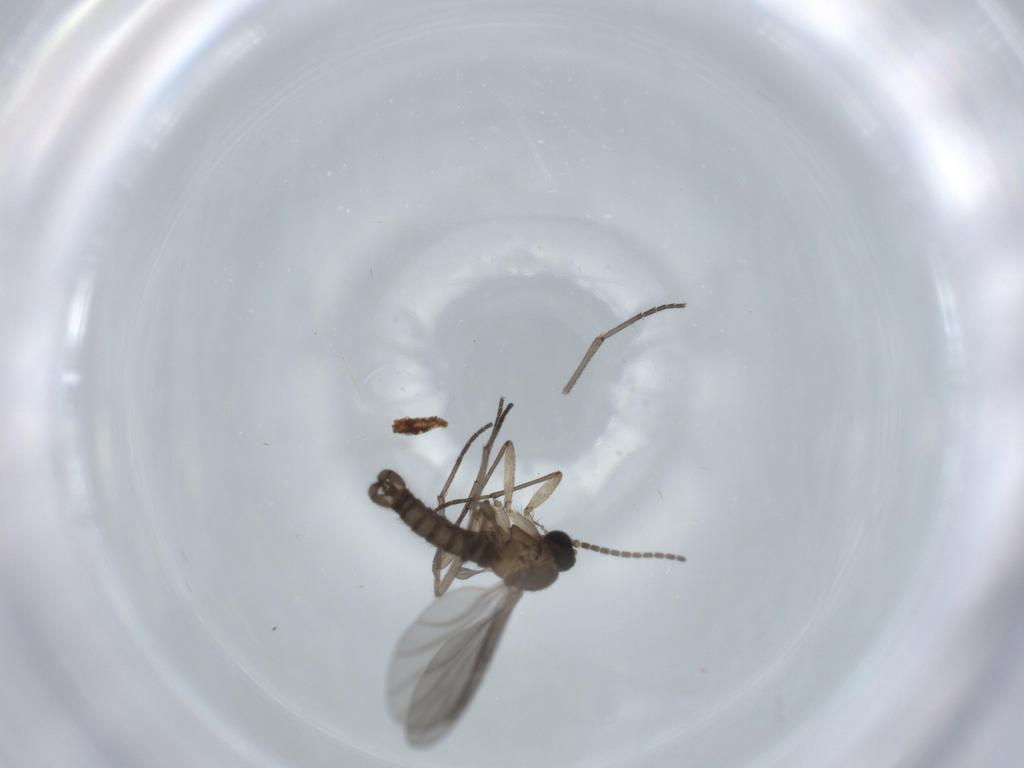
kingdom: Animalia
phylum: Arthropoda
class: Insecta
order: Diptera
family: Sciaridae
